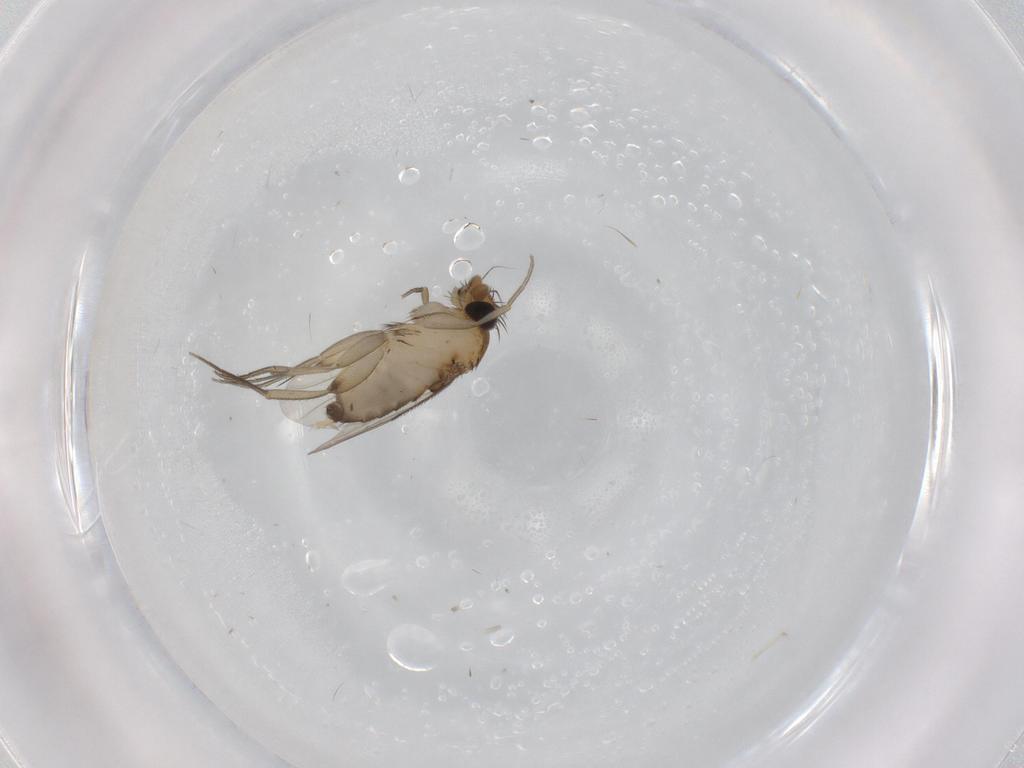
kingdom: Animalia
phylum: Arthropoda
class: Insecta
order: Diptera
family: Phoridae
